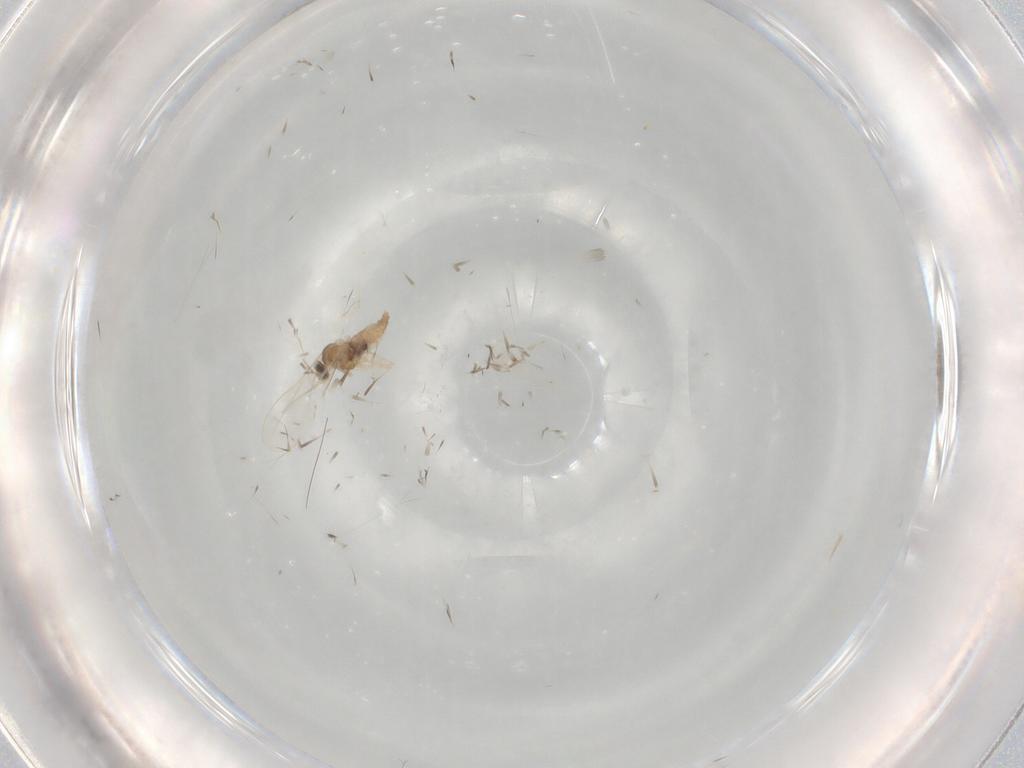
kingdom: Animalia
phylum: Arthropoda
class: Insecta
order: Diptera
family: Cecidomyiidae
